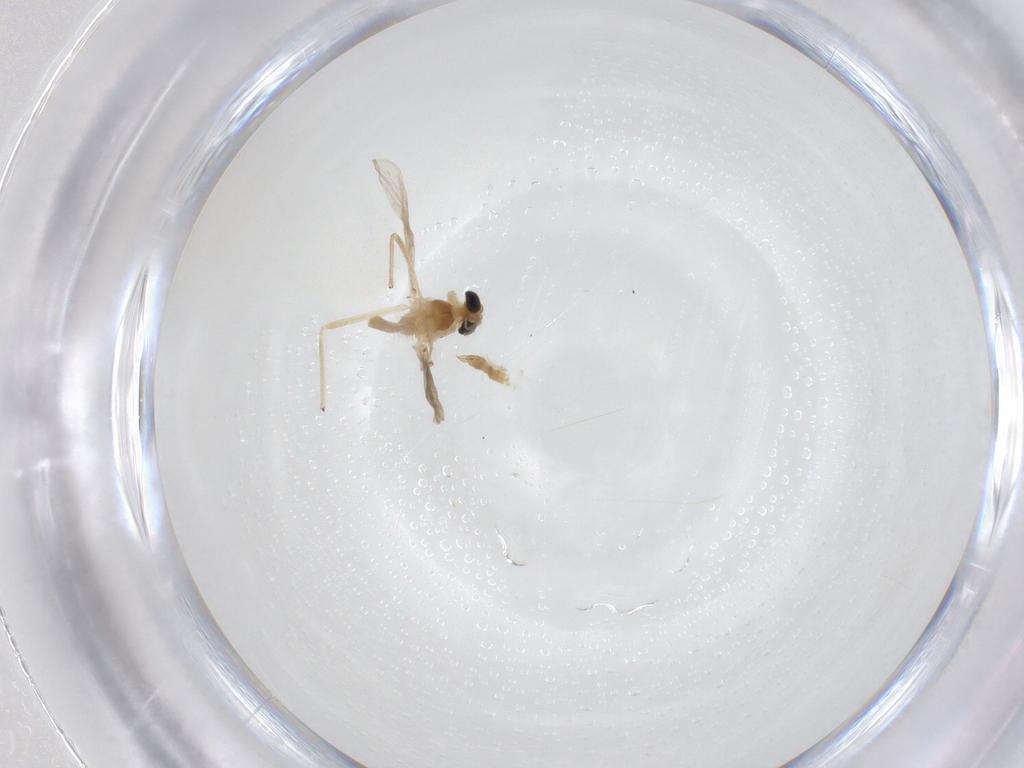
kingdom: Animalia
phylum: Arthropoda
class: Insecta
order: Diptera
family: Chironomidae
